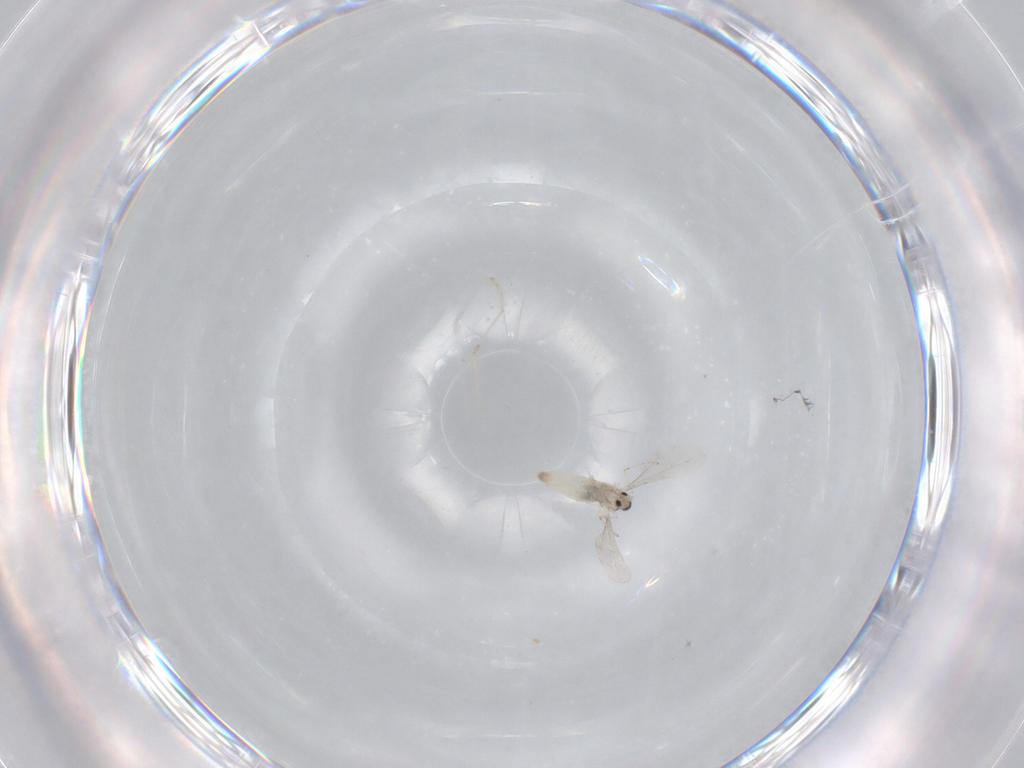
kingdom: Animalia
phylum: Arthropoda
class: Insecta
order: Diptera
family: Cecidomyiidae
